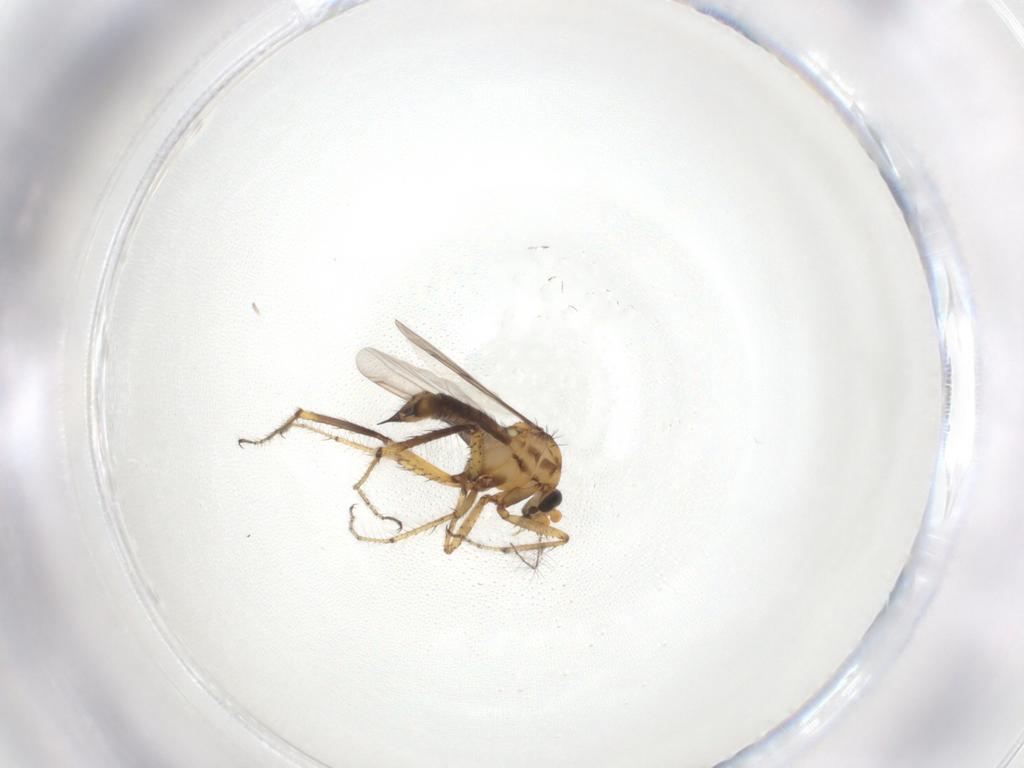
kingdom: Animalia
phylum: Arthropoda
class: Insecta
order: Diptera
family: Ceratopogonidae
